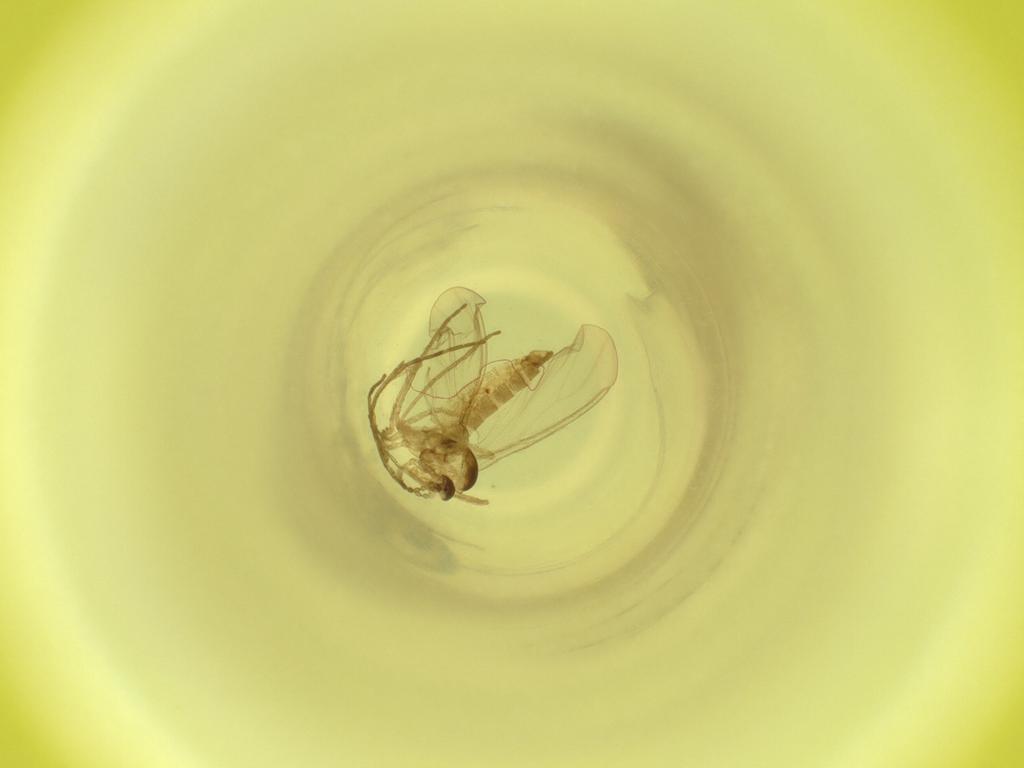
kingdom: Animalia
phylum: Arthropoda
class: Insecta
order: Diptera
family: Cecidomyiidae
